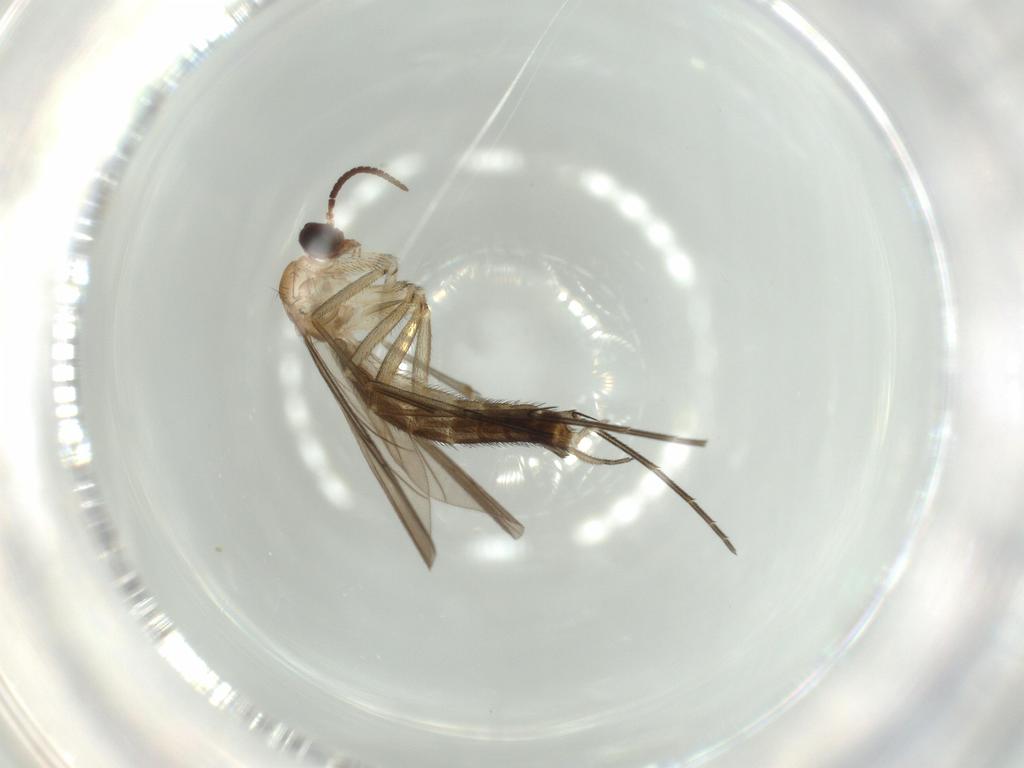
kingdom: Animalia
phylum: Arthropoda
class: Insecta
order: Diptera
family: Keroplatidae
